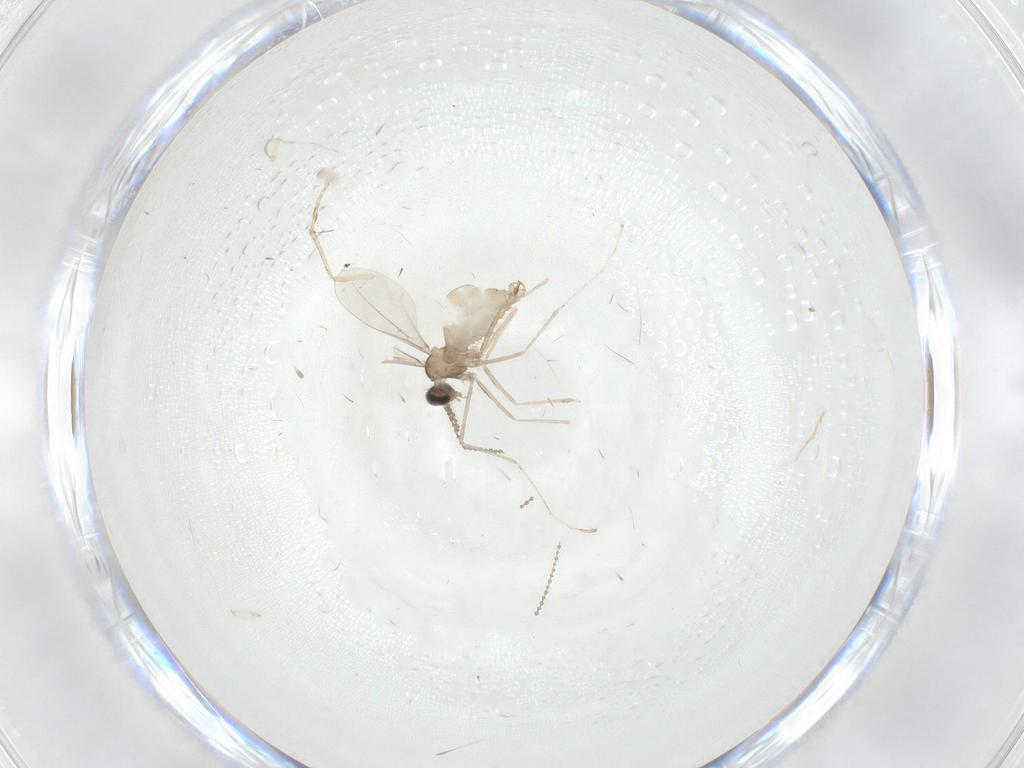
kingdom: Animalia
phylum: Arthropoda
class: Insecta
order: Diptera
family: Cecidomyiidae
